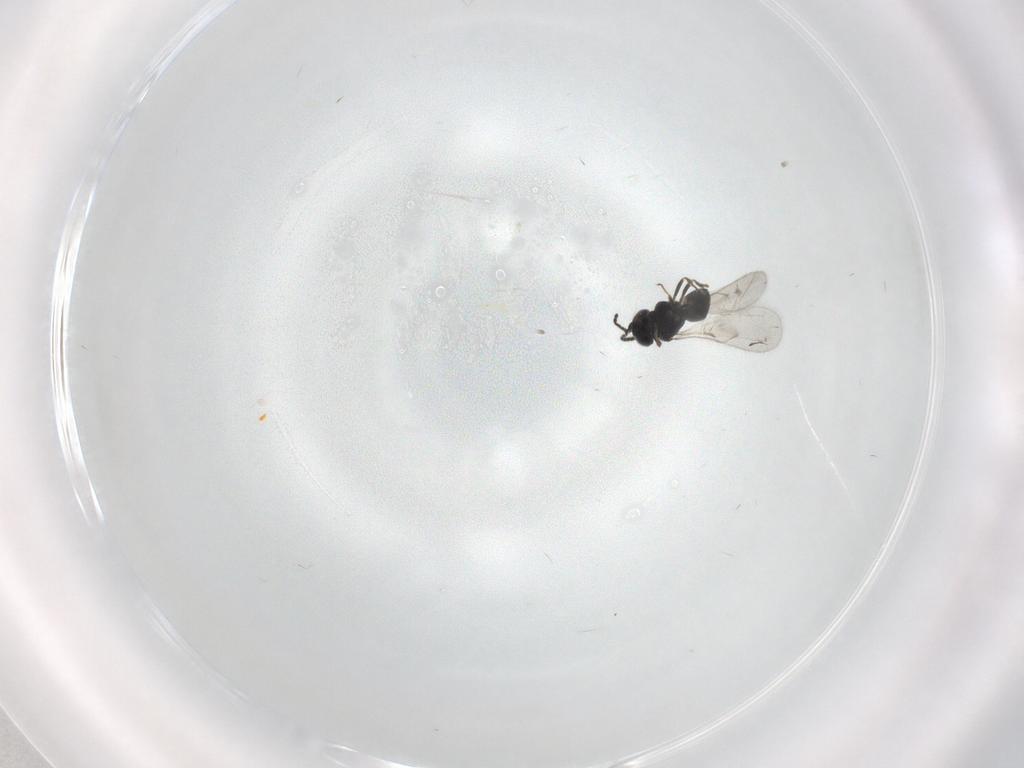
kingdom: Animalia
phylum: Arthropoda
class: Insecta
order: Hymenoptera
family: Scelionidae
